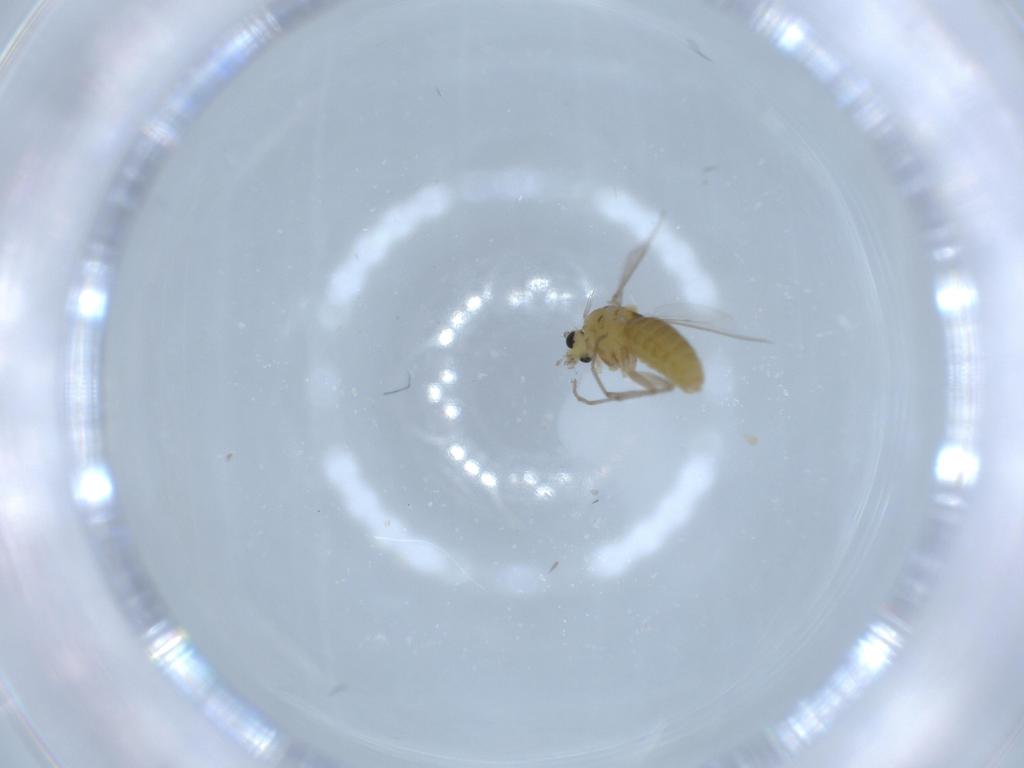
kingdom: Animalia
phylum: Arthropoda
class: Insecta
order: Diptera
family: Chironomidae
